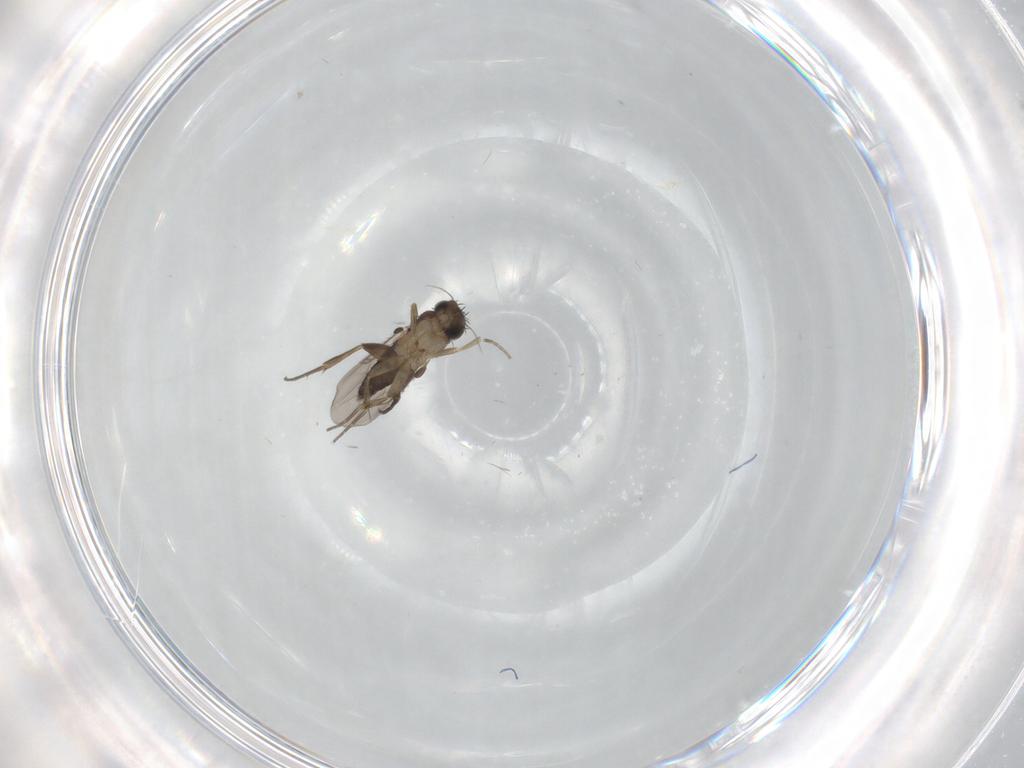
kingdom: Animalia
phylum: Arthropoda
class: Insecta
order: Diptera
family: Phoridae
